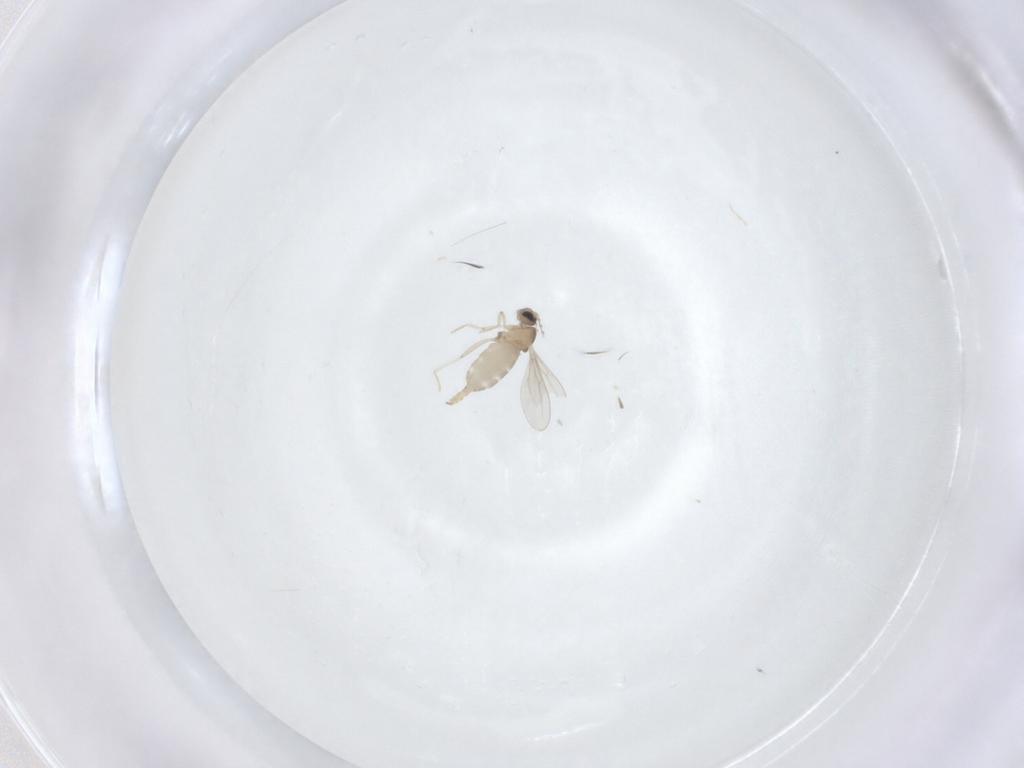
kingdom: Animalia
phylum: Arthropoda
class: Insecta
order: Diptera
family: Cecidomyiidae
